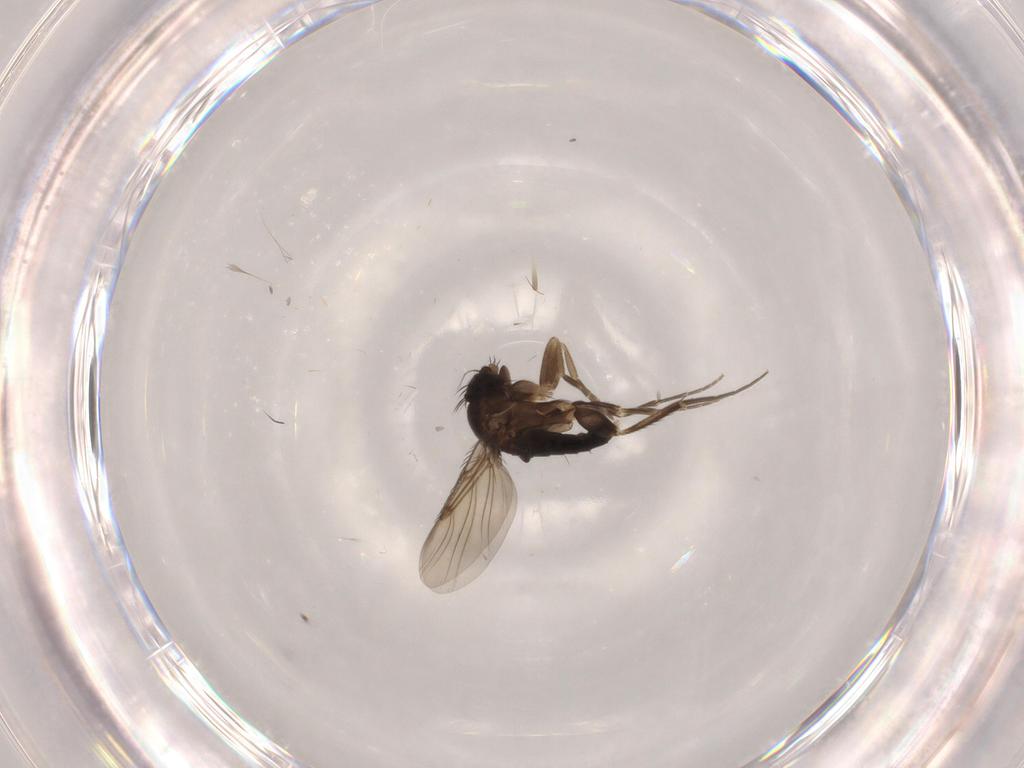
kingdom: Animalia
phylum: Arthropoda
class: Insecta
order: Diptera
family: Phoridae
